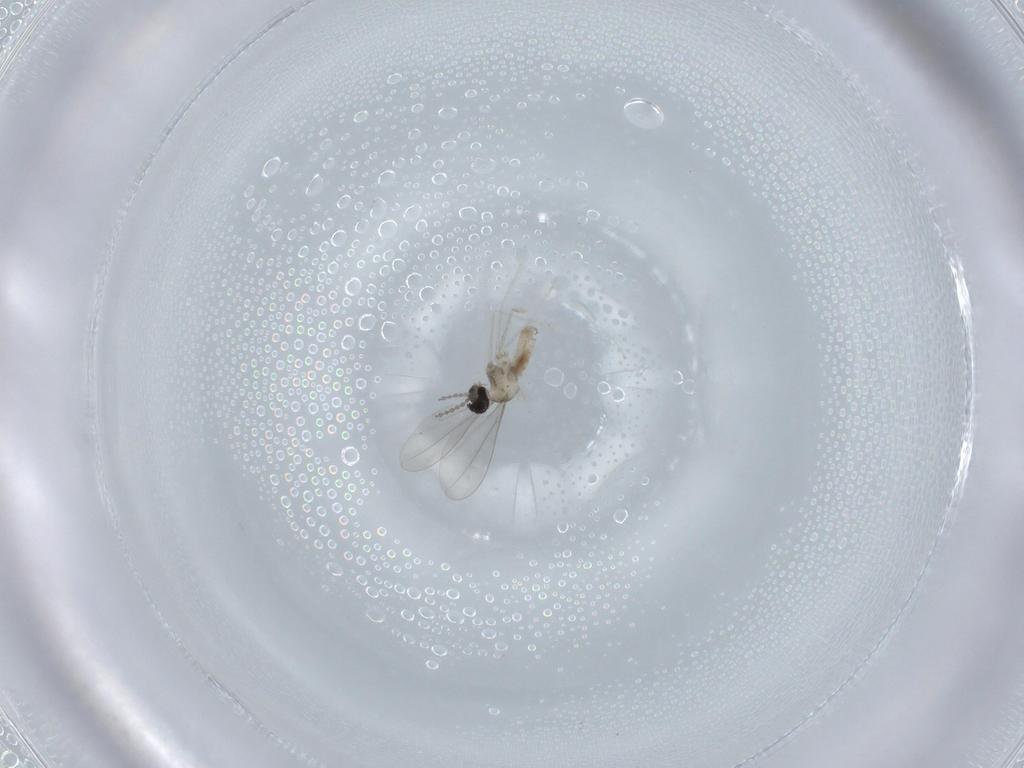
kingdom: Animalia
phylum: Arthropoda
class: Insecta
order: Diptera
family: Cecidomyiidae
